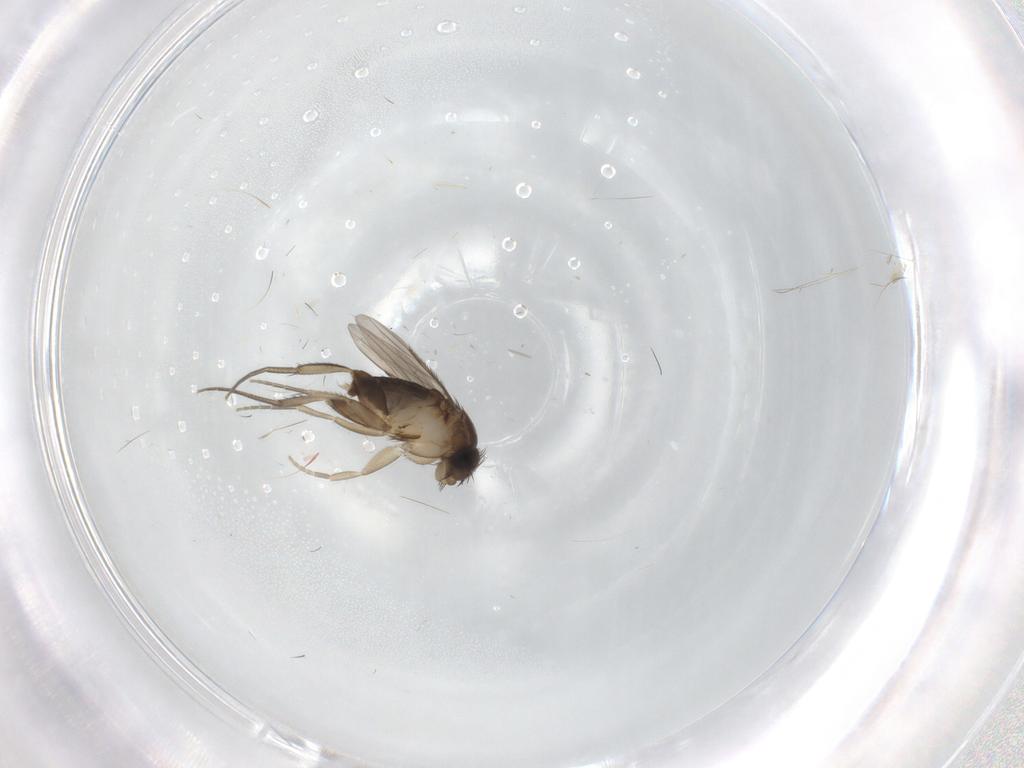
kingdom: Animalia
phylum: Arthropoda
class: Insecta
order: Diptera
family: Phoridae
